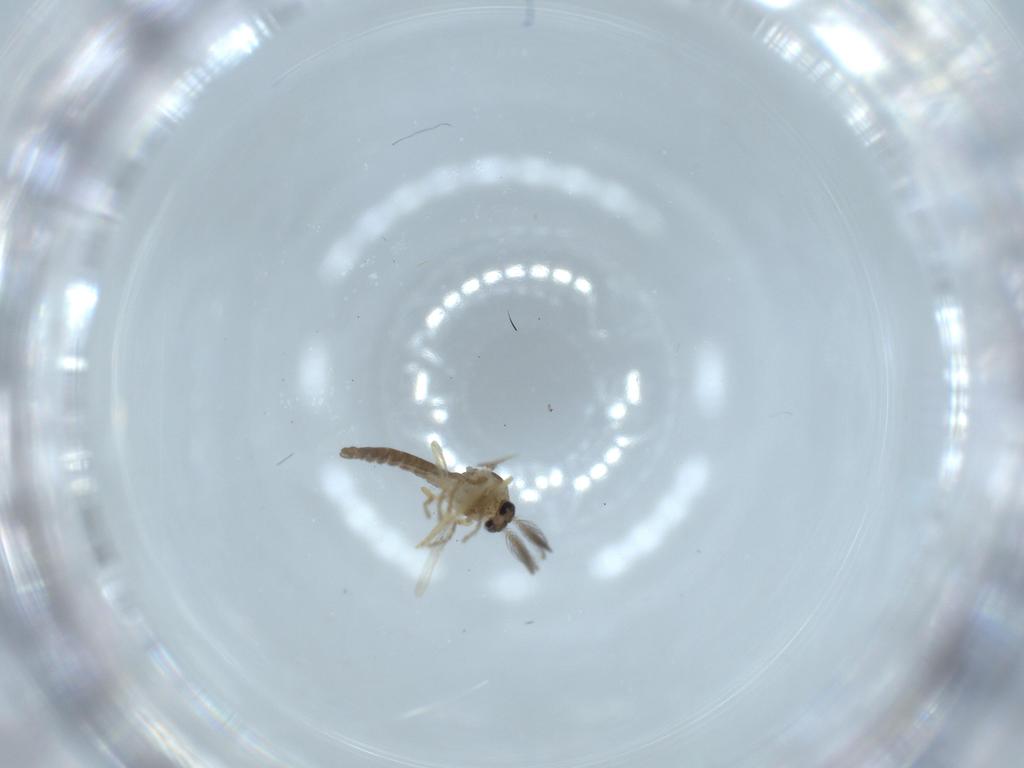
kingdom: Animalia
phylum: Arthropoda
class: Insecta
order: Diptera
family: Ceratopogonidae
